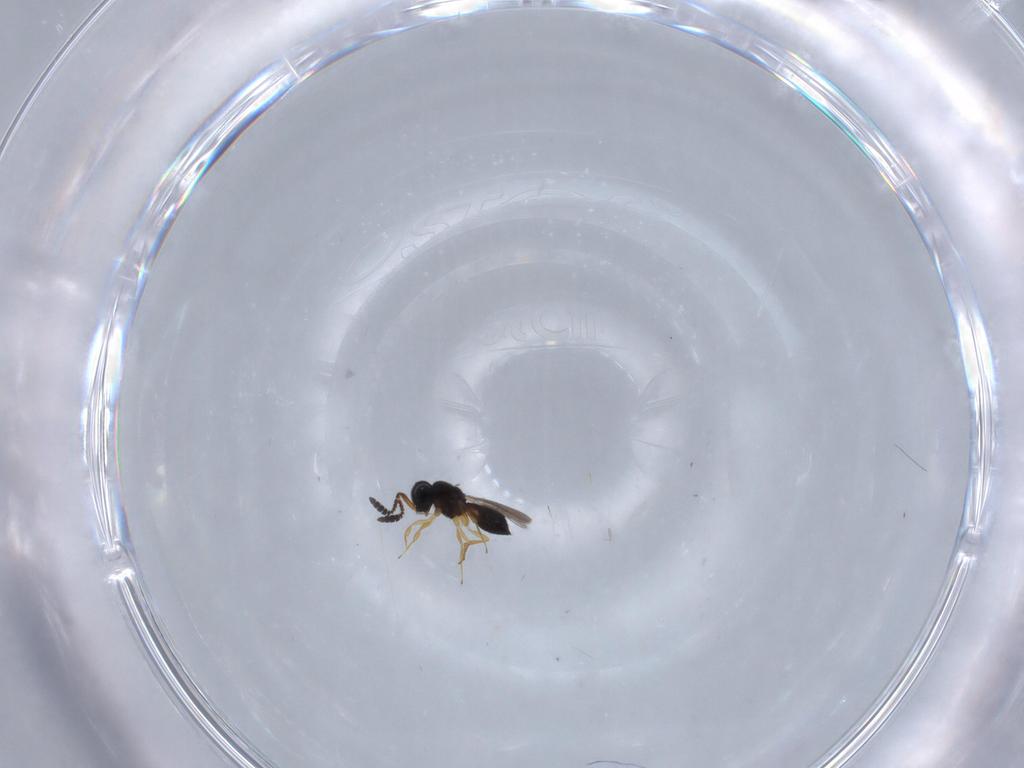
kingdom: Animalia
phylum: Arthropoda
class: Insecta
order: Hymenoptera
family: Scelionidae
